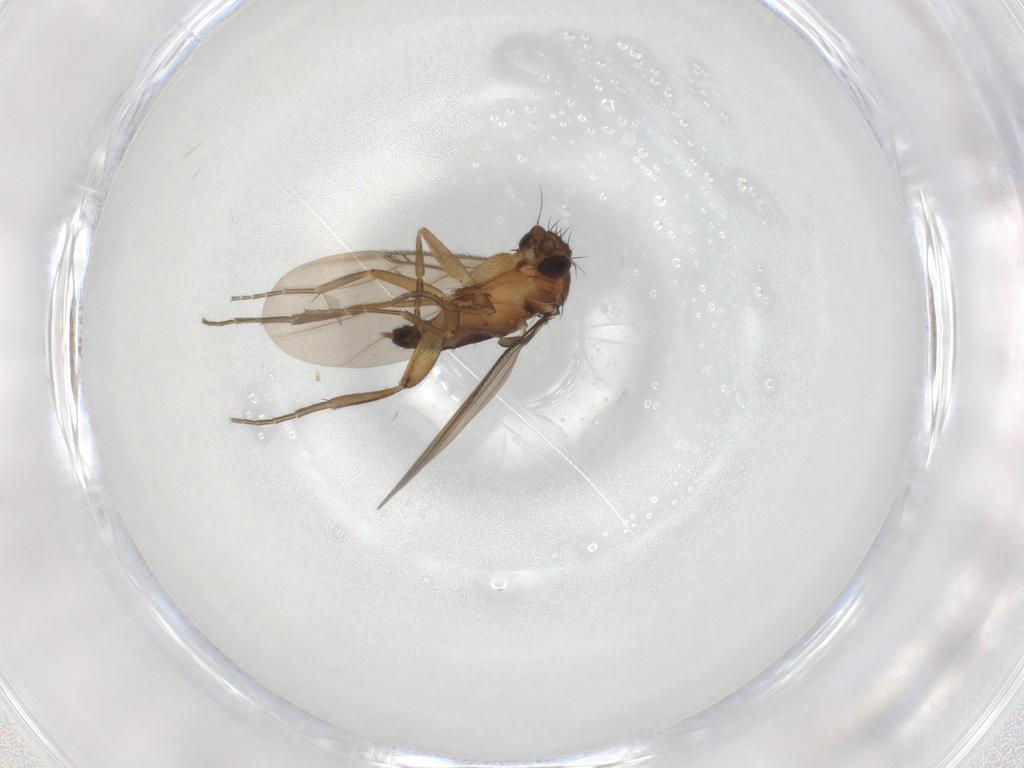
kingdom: Animalia
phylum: Arthropoda
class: Insecta
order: Diptera
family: Phoridae
